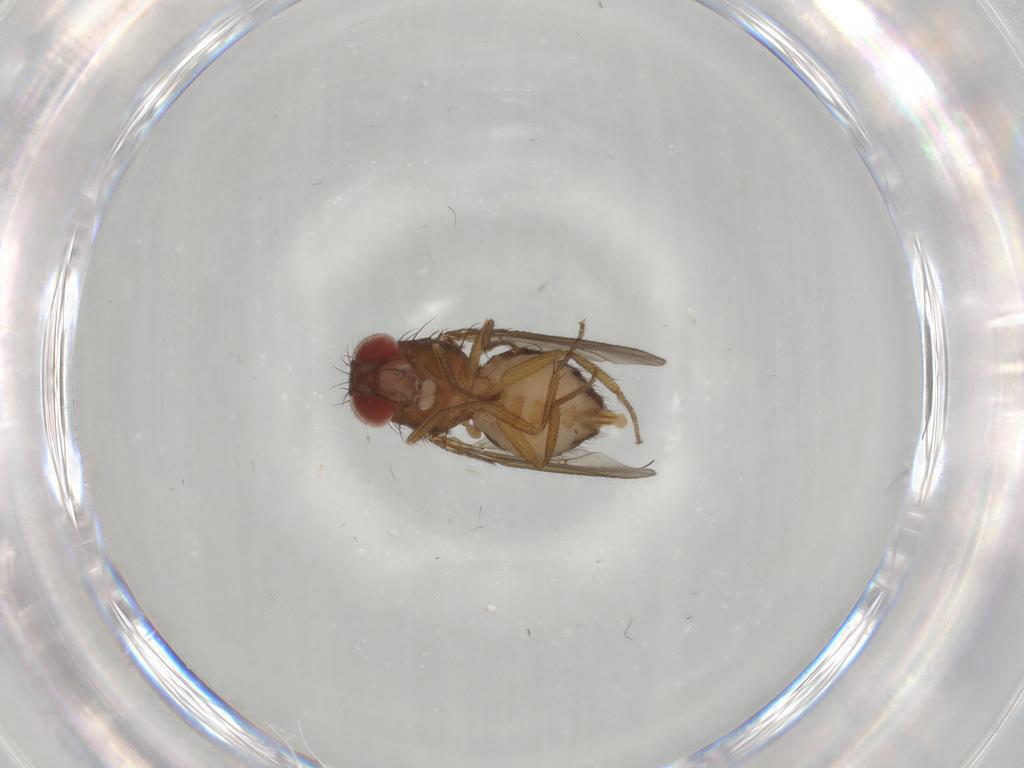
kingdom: Animalia
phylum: Arthropoda
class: Insecta
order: Diptera
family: Drosophilidae
